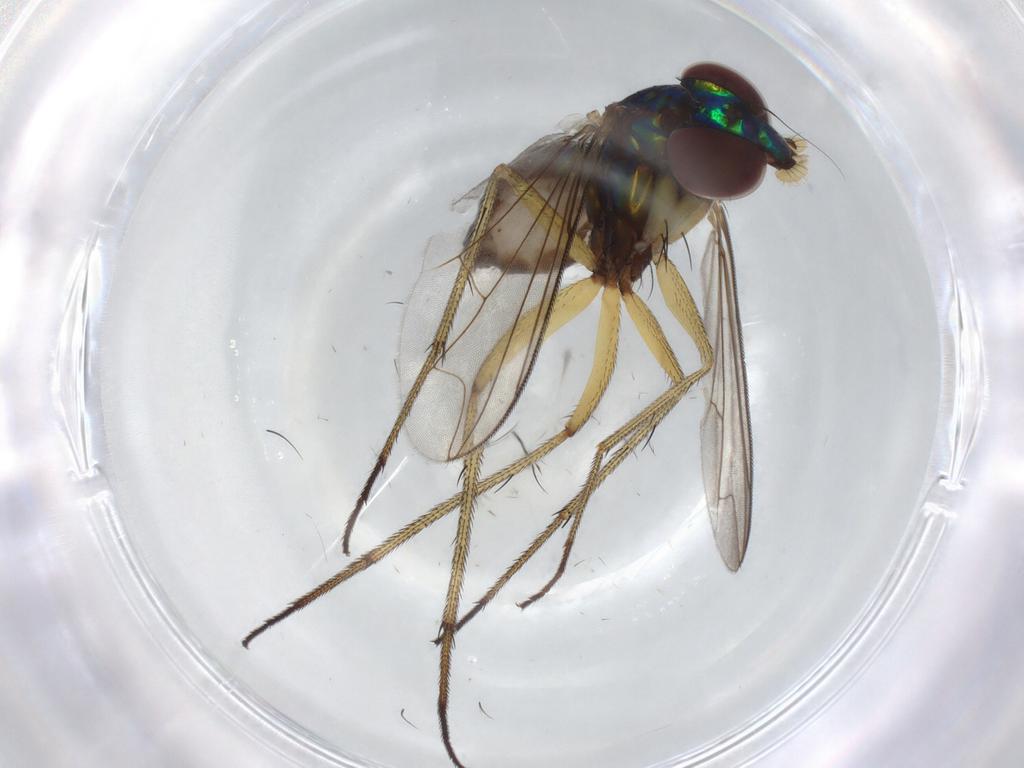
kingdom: Animalia
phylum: Arthropoda
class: Insecta
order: Diptera
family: Dolichopodidae
